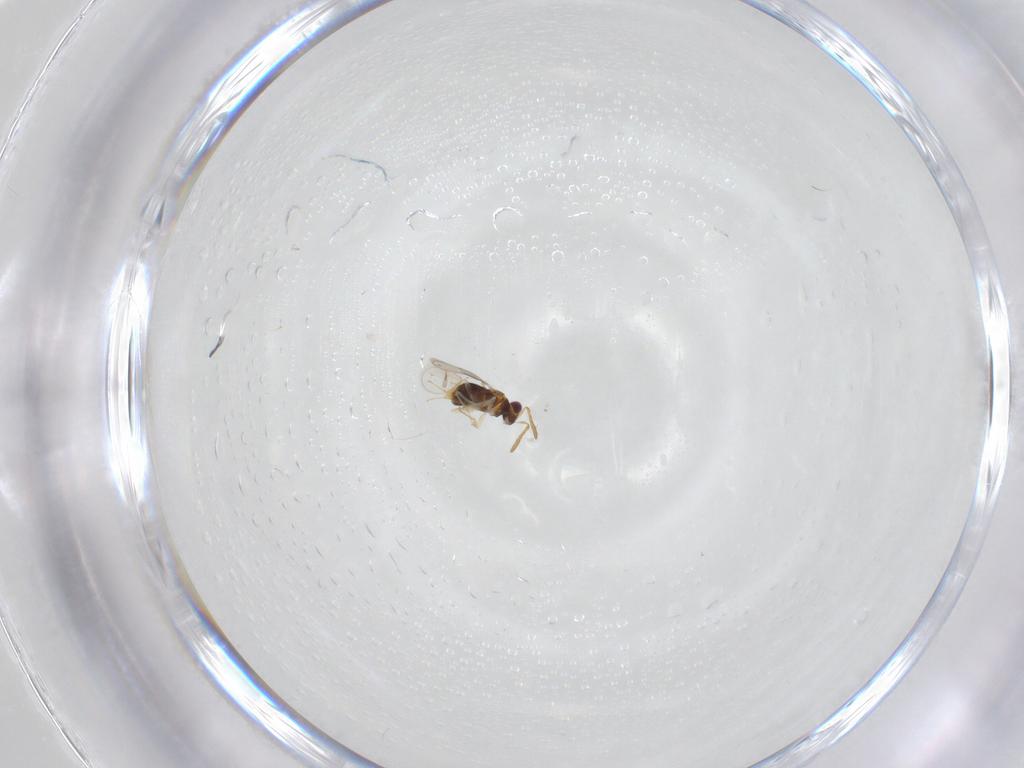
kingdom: Animalia
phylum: Arthropoda
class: Insecta
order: Hymenoptera
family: Aphelinidae
